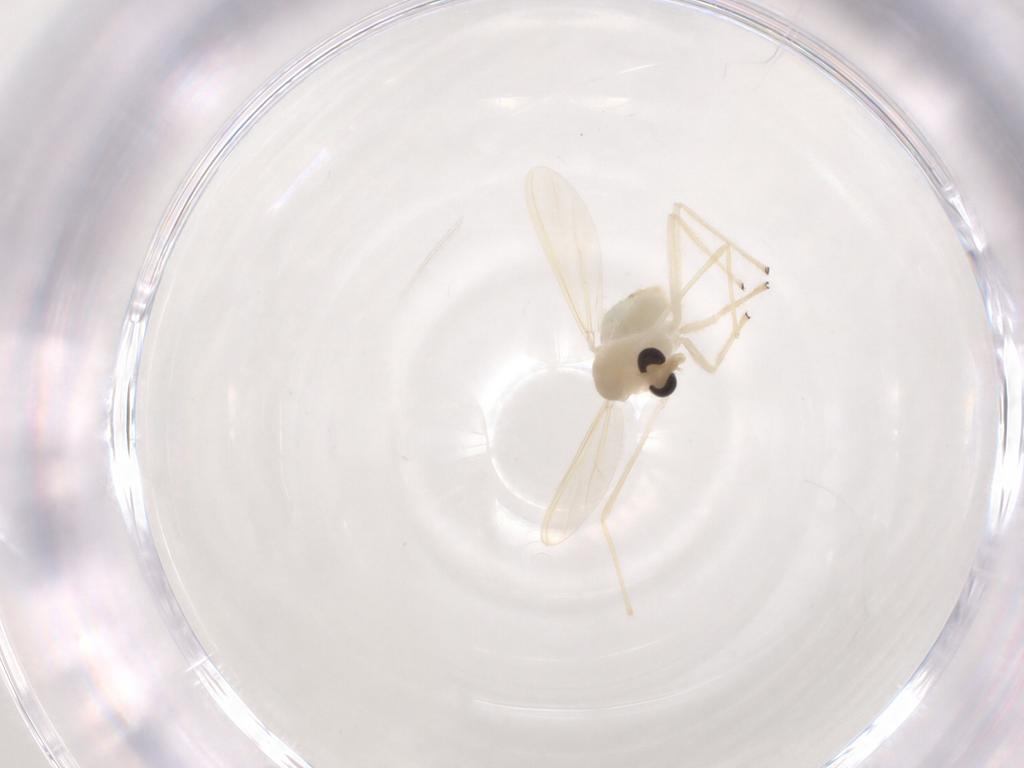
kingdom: Animalia
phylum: Arthropoda
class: Insecta
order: Diptera
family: Chironomidae
